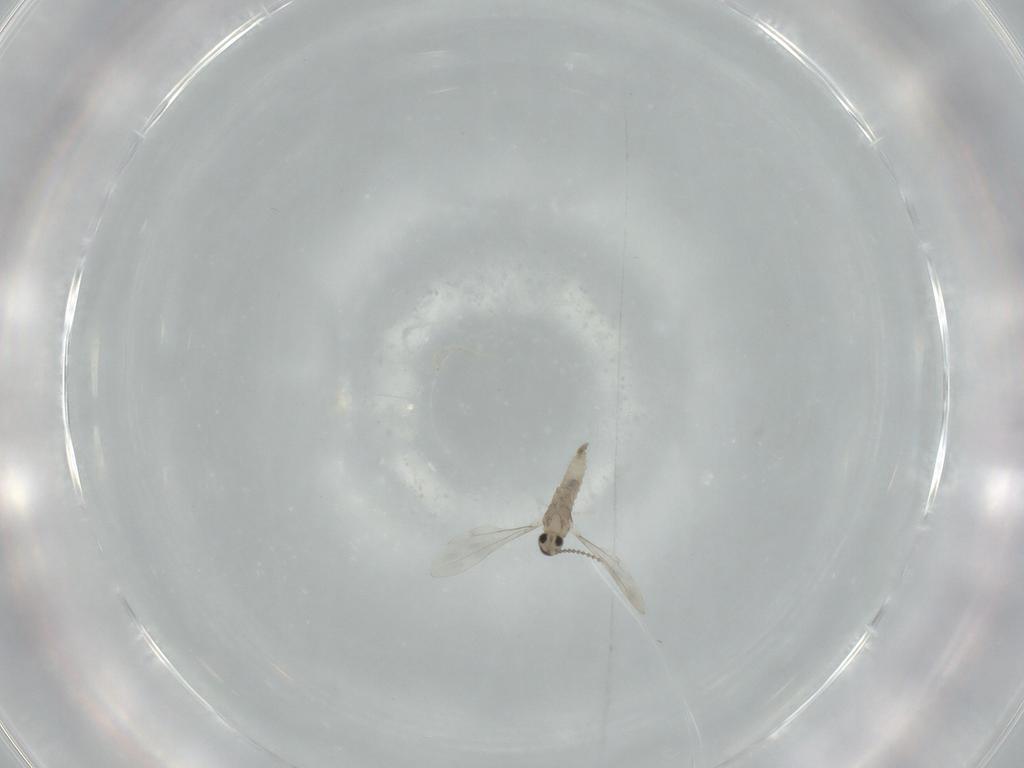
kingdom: Animalia
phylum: Arthropoda
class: Insecta
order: Diptera
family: Cecidomyiidae
